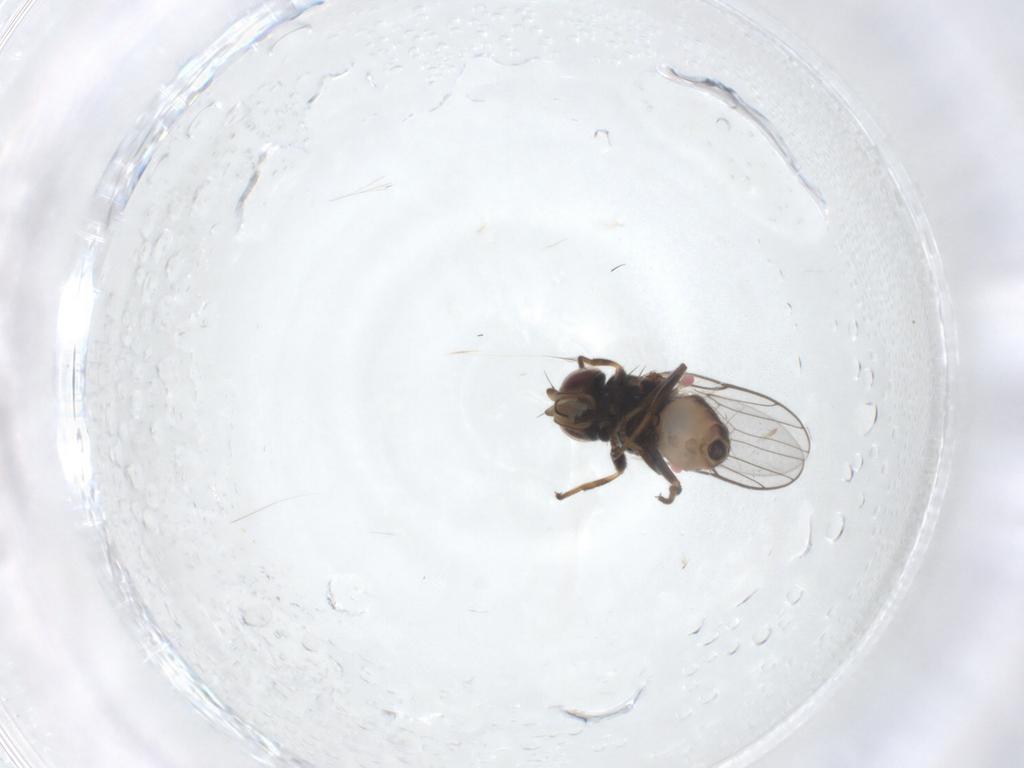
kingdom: Animalia
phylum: Arthropoda
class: Insecta
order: Diptera
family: Chloropidae
